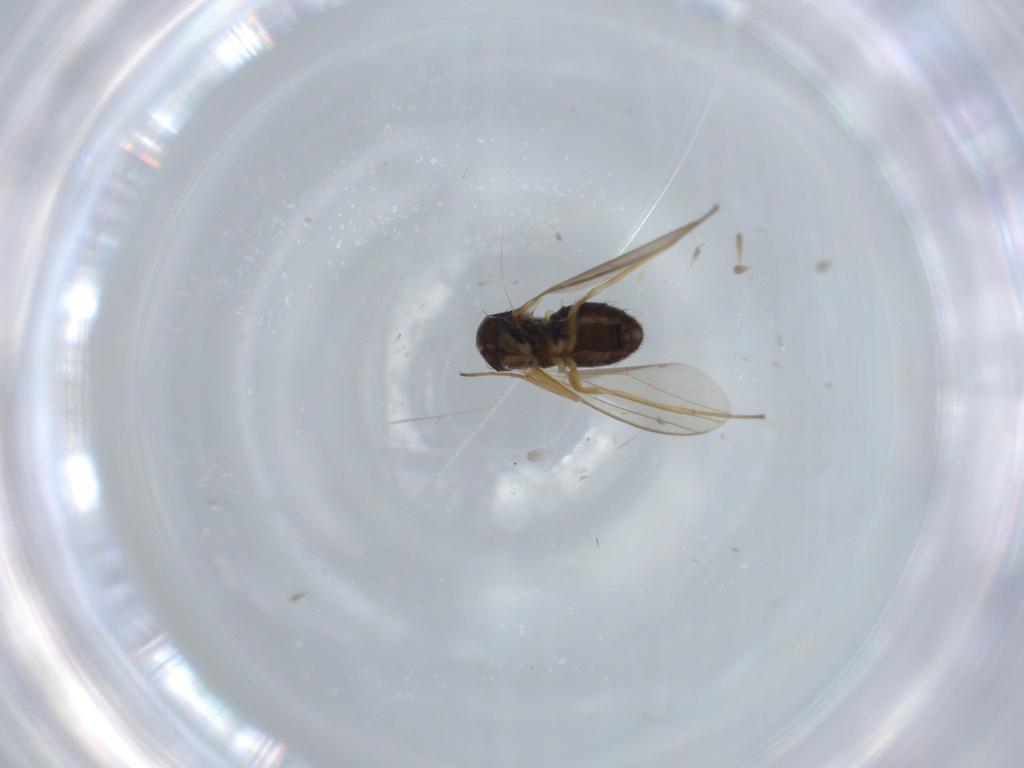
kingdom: Animalia
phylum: Arthropoda
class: Insecta
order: Diptera
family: Dolichopodidae
